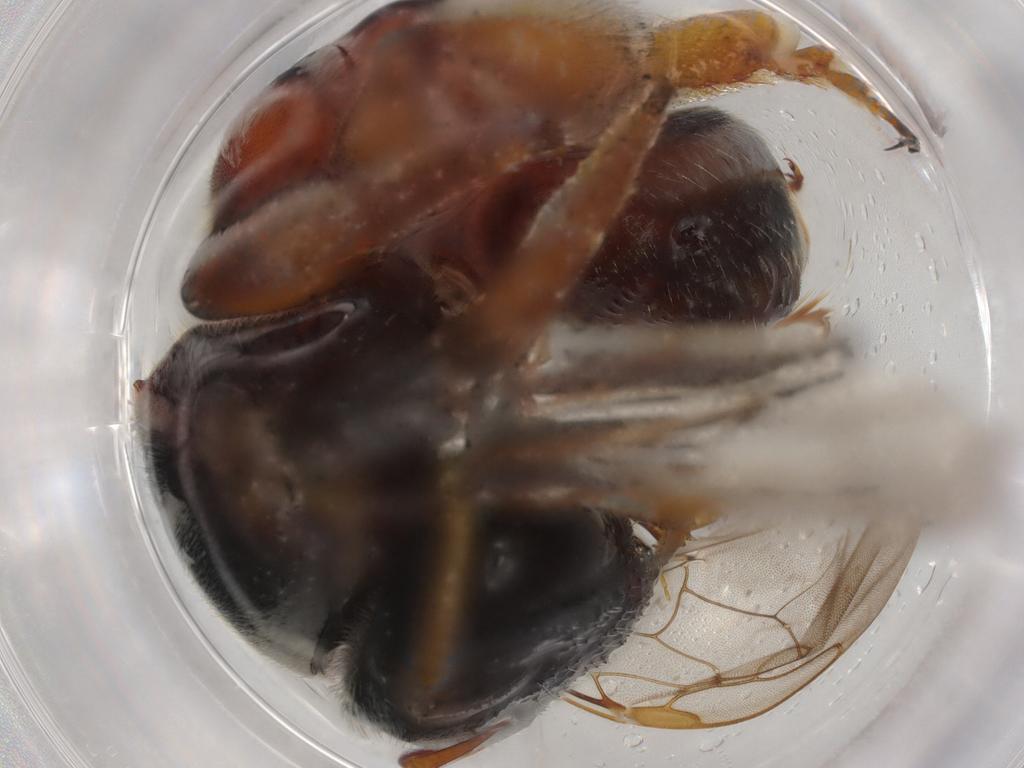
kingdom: Animalia
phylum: Arthropoda
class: Insecta
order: Hymenoptera
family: Vespidae
